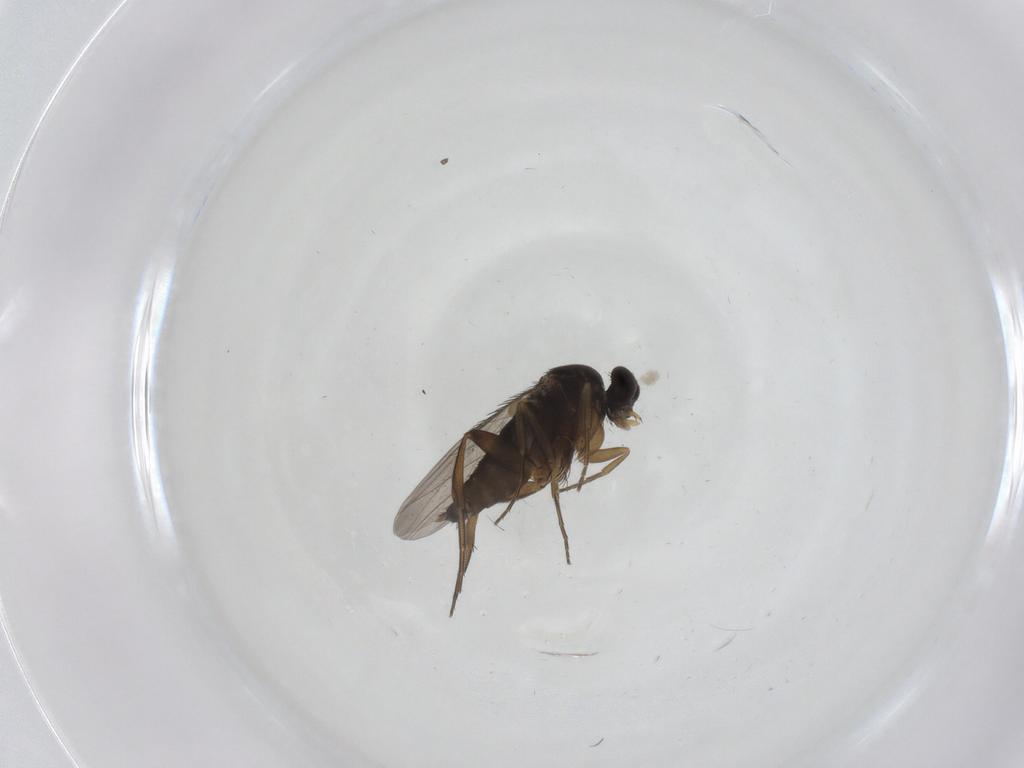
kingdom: Animalia
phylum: Arthropoda
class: Insecta
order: Diptera
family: Phoridae
